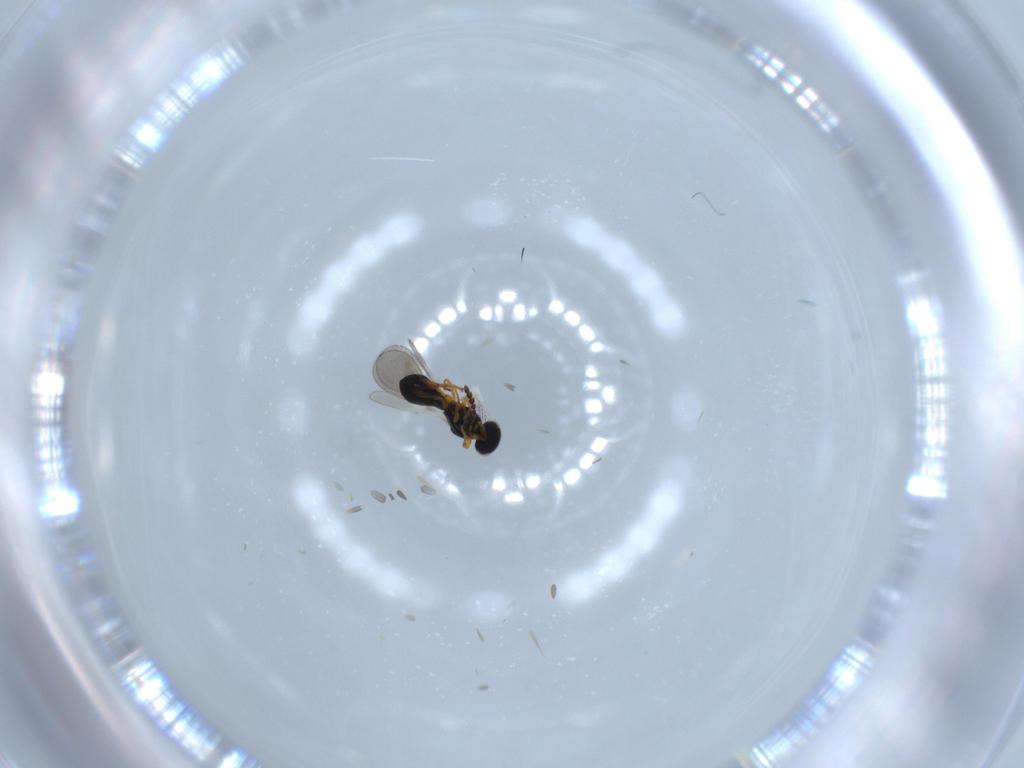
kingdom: Animalia
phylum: Arthropoda
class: Insecta
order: Hymenoptera
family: Platygastridae
